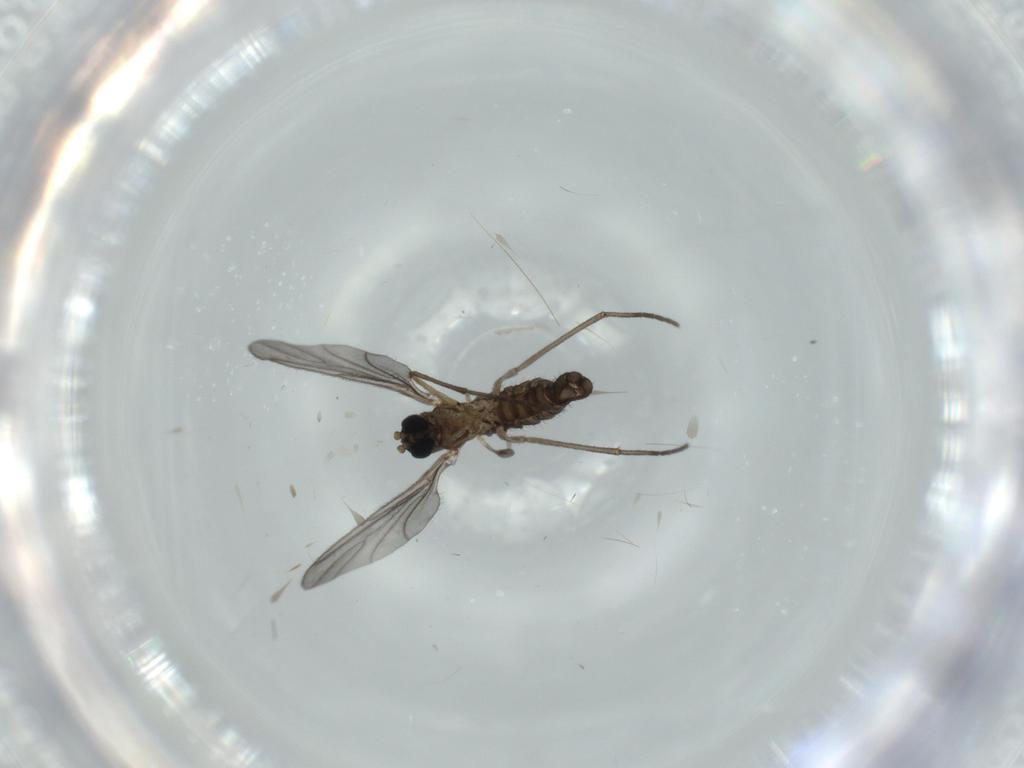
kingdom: Animalia
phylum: Arthropoda
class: Insecta
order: Diptera
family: Sciaridae
